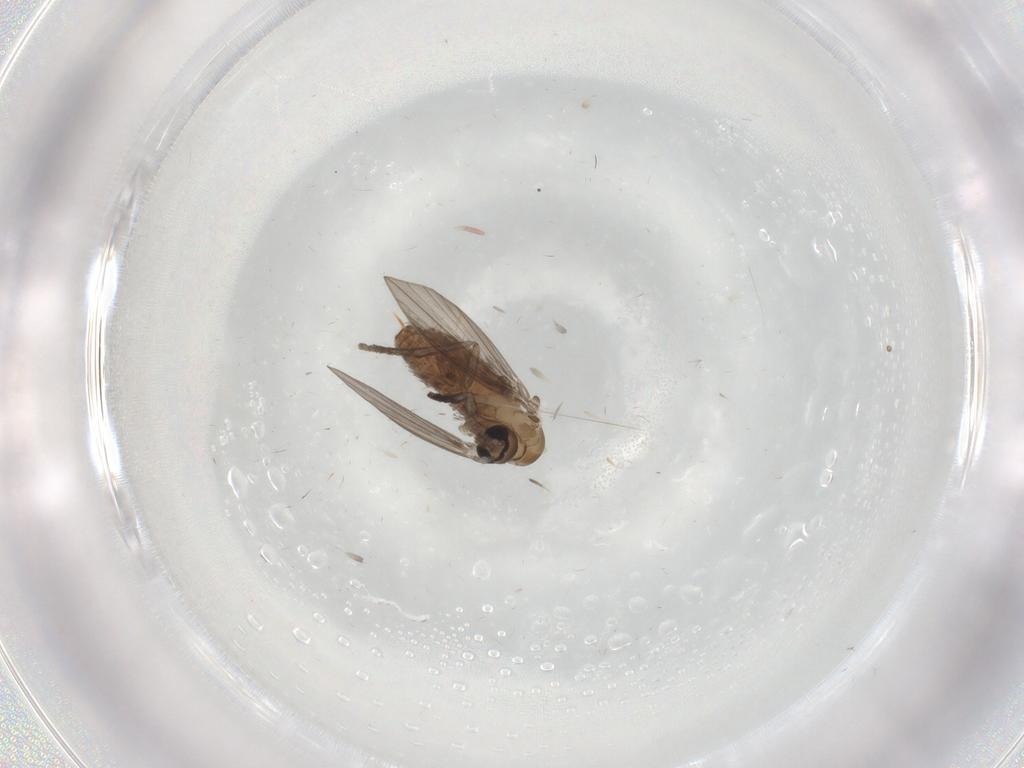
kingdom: Animalia
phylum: Arthropoda
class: Insecta
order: Diptera
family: Psychodidae
